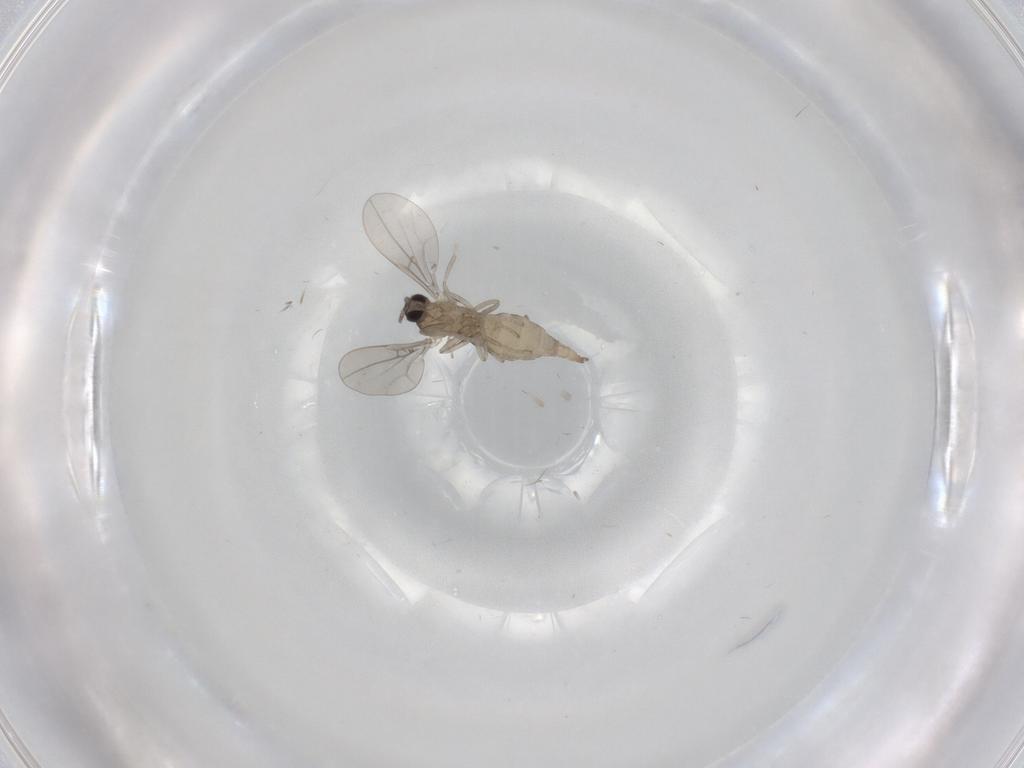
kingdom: Animalia
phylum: Arthropoda
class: Insecta
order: Diptera
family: Cecidomyiidae
